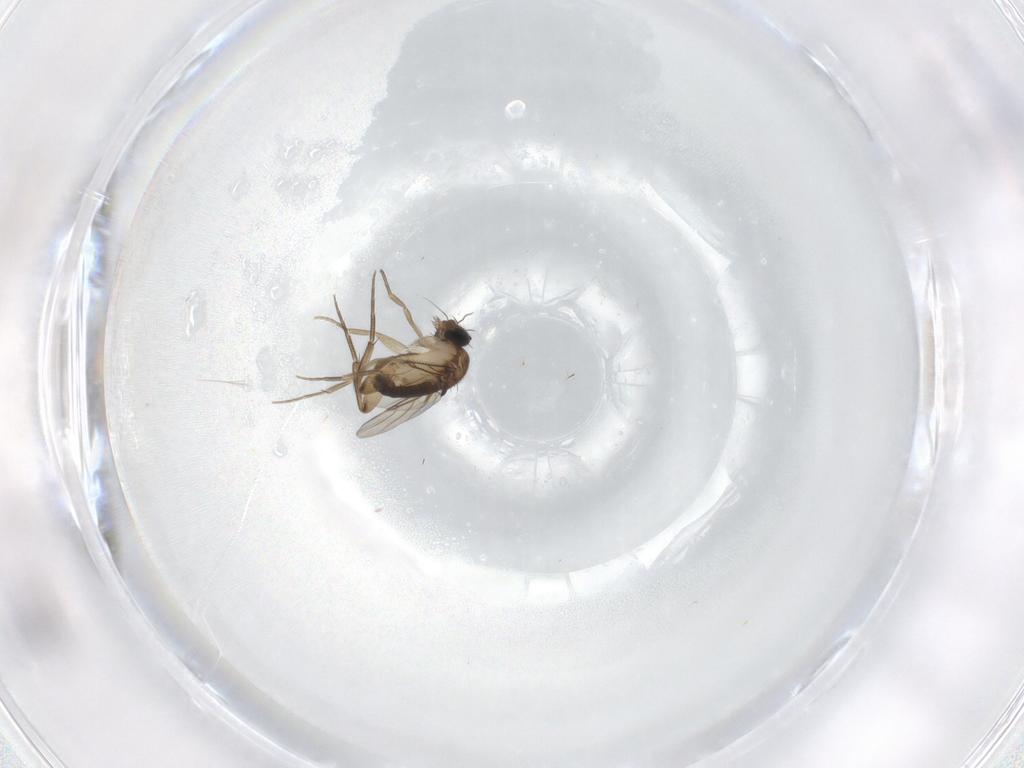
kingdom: Animalia
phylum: Arthropoda
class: Insecta
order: Diptera
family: Phoridae
